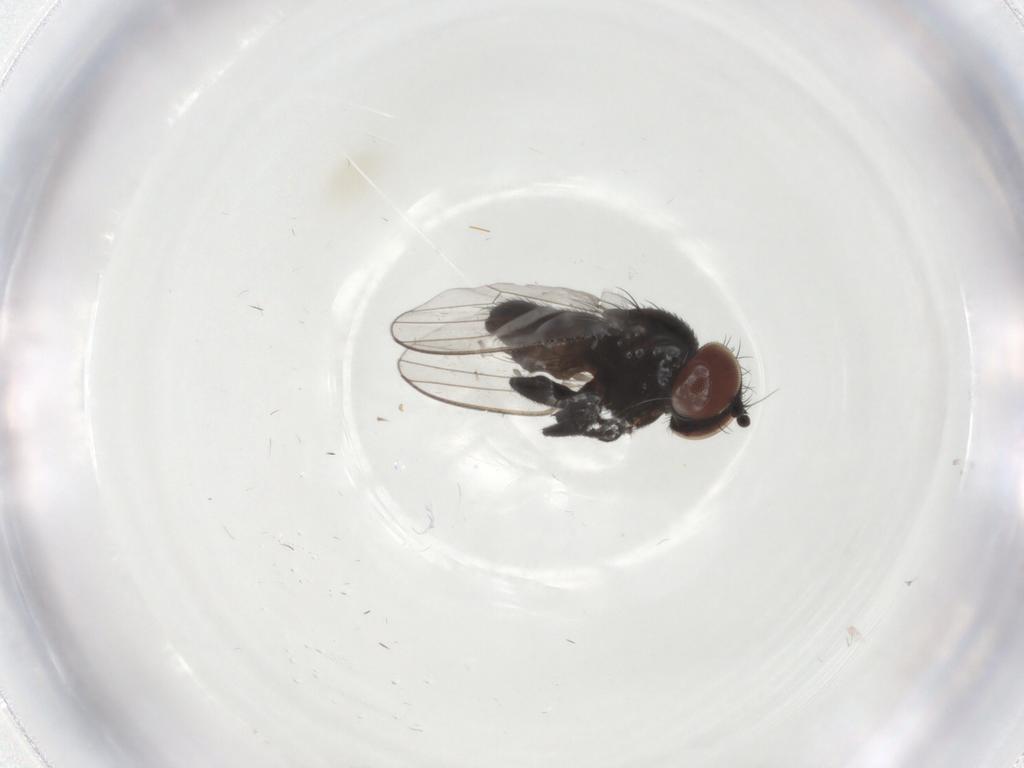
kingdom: Animalia
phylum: Arthropoda
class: Insecta
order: Diptera
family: Milichiidae
